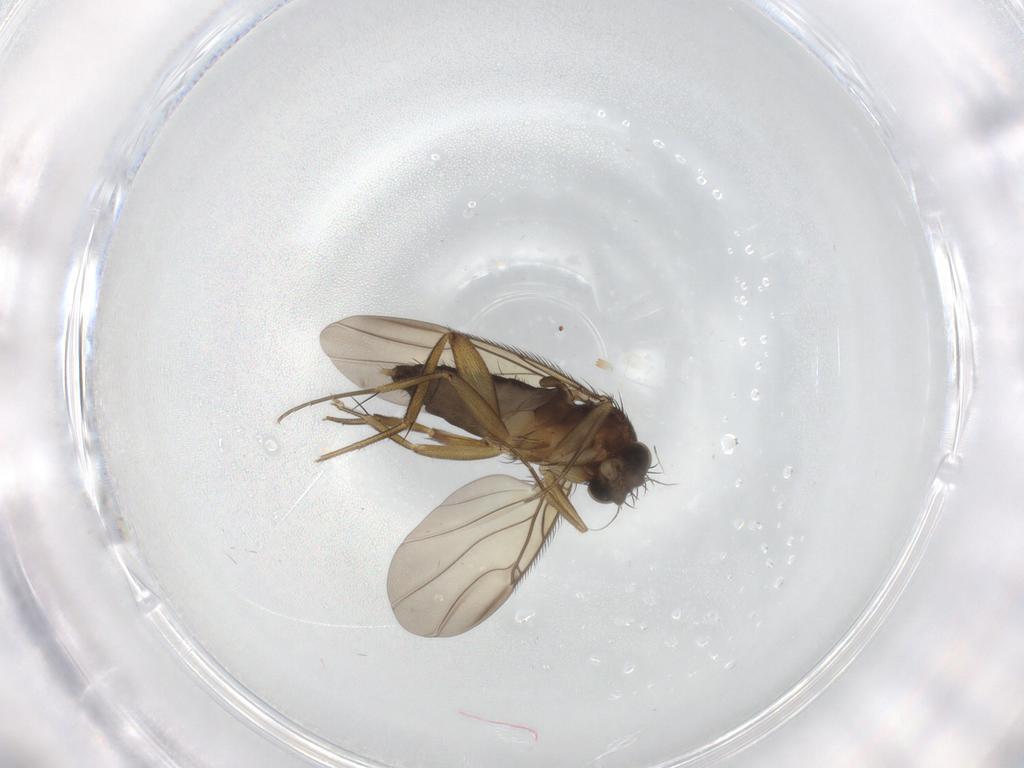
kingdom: Animalia
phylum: Arthropoda
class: Insecta
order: Diptera
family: Phoridae
